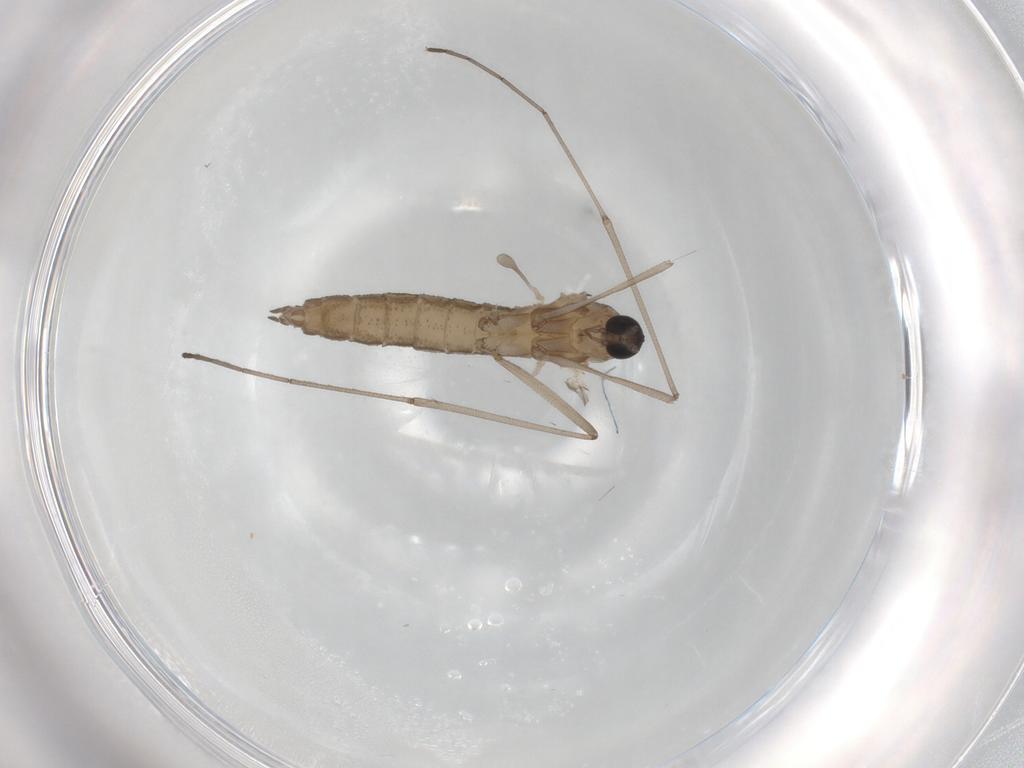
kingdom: Animalia
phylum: Arthropoda
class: Insecta
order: Diptera
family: Cecidomyiidae
